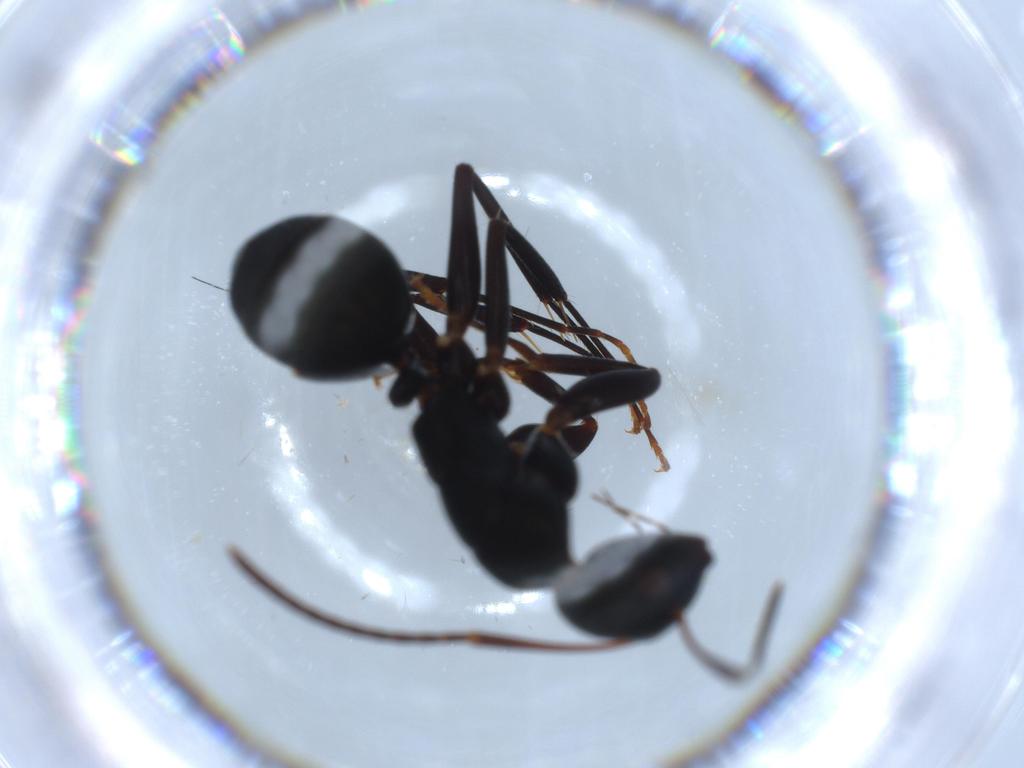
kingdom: Animalia
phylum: Arthropoda
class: Insecta
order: Hymenoptera
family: Formicidae
